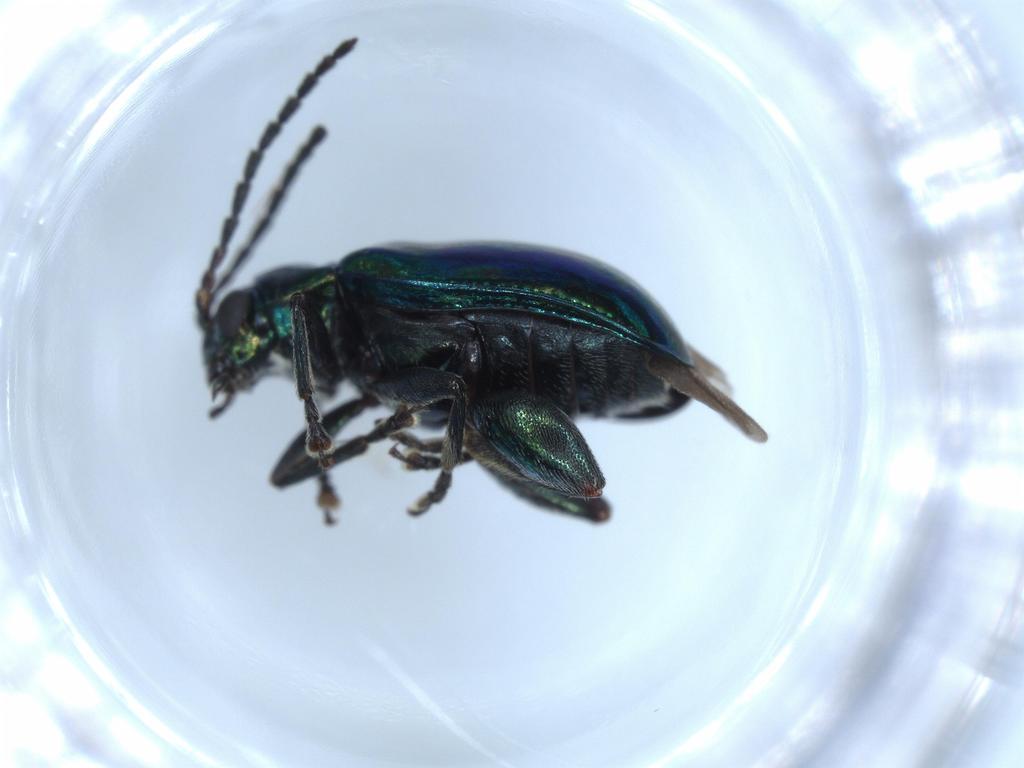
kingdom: Animalia
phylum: Arthropoda
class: Insecta
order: Coleoptera
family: Chrysomelidae
